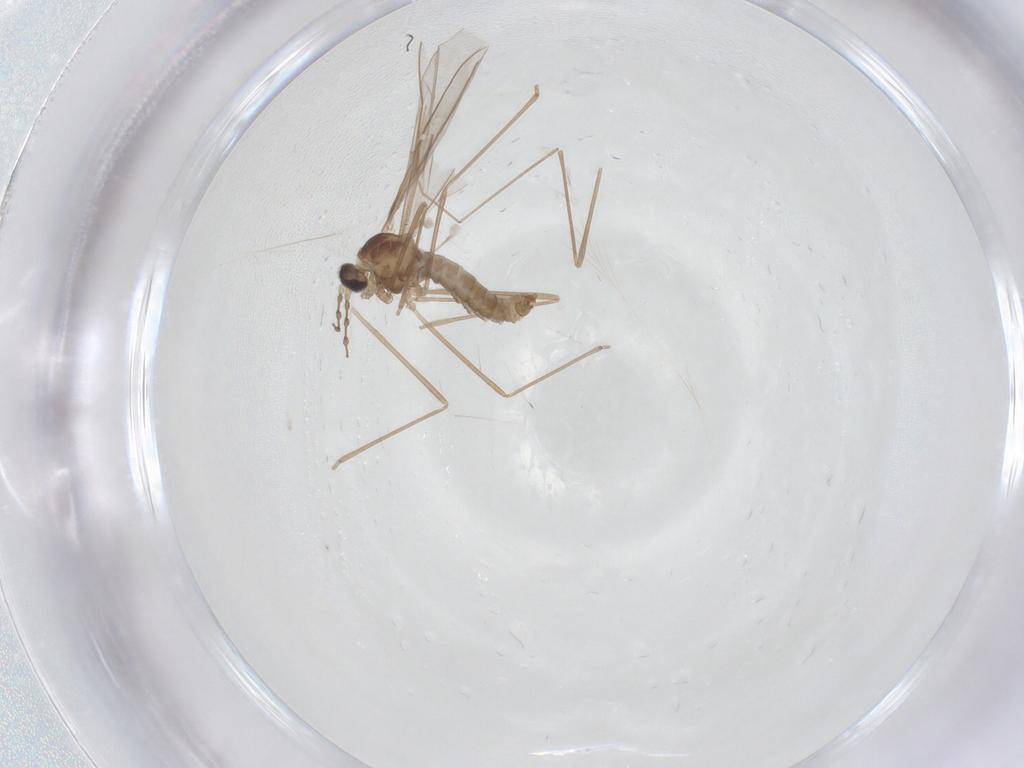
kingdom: Animalia
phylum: Arthropoda
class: Insecta
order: Diptera
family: Cecidomyiidae
